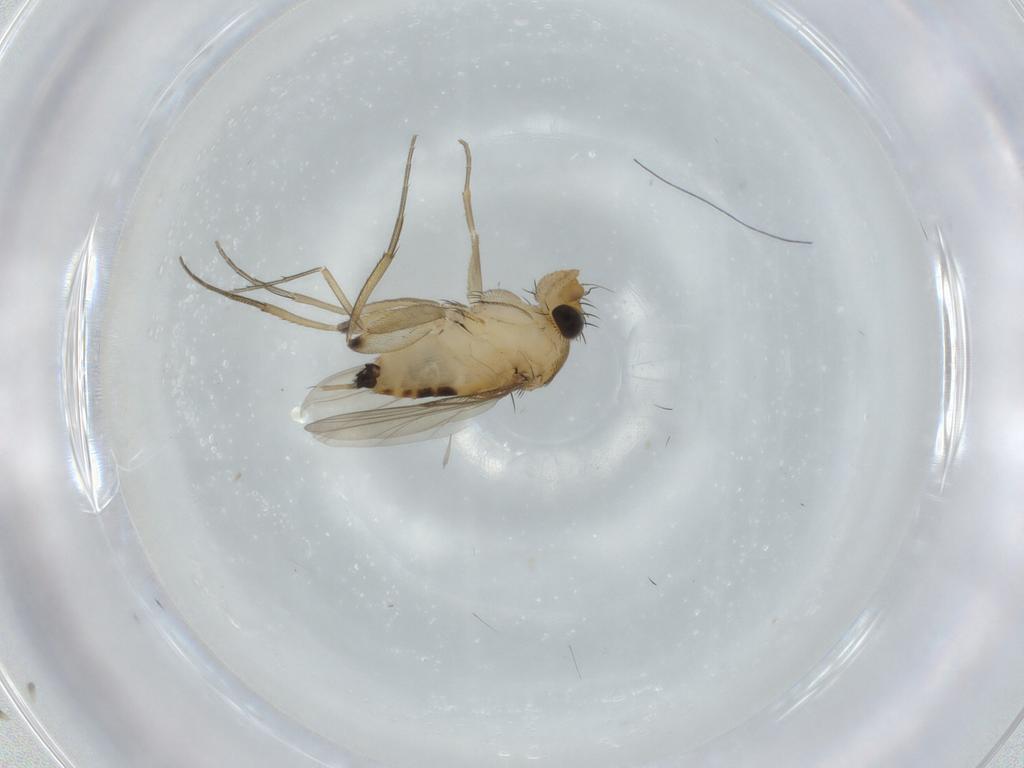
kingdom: Animalia
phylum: Arthropoda
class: Insecta
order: Diptera
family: Phoridae
